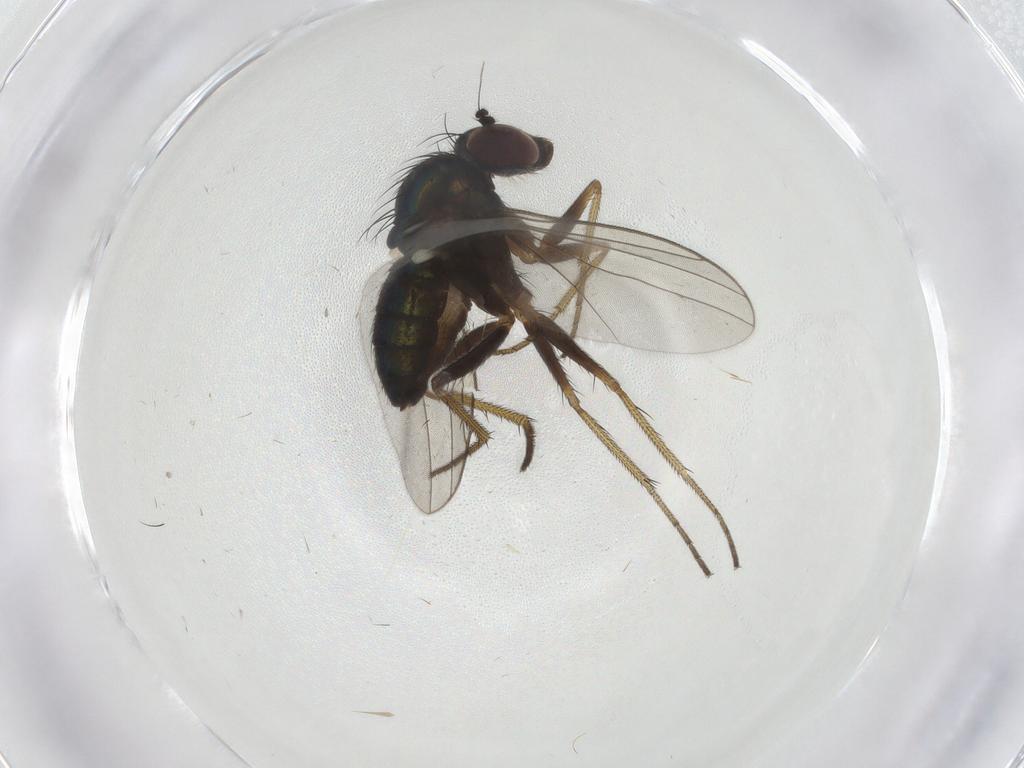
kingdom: Animalia
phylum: Arthropoda
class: Insecta
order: Diptera
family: Dolichopodidae
